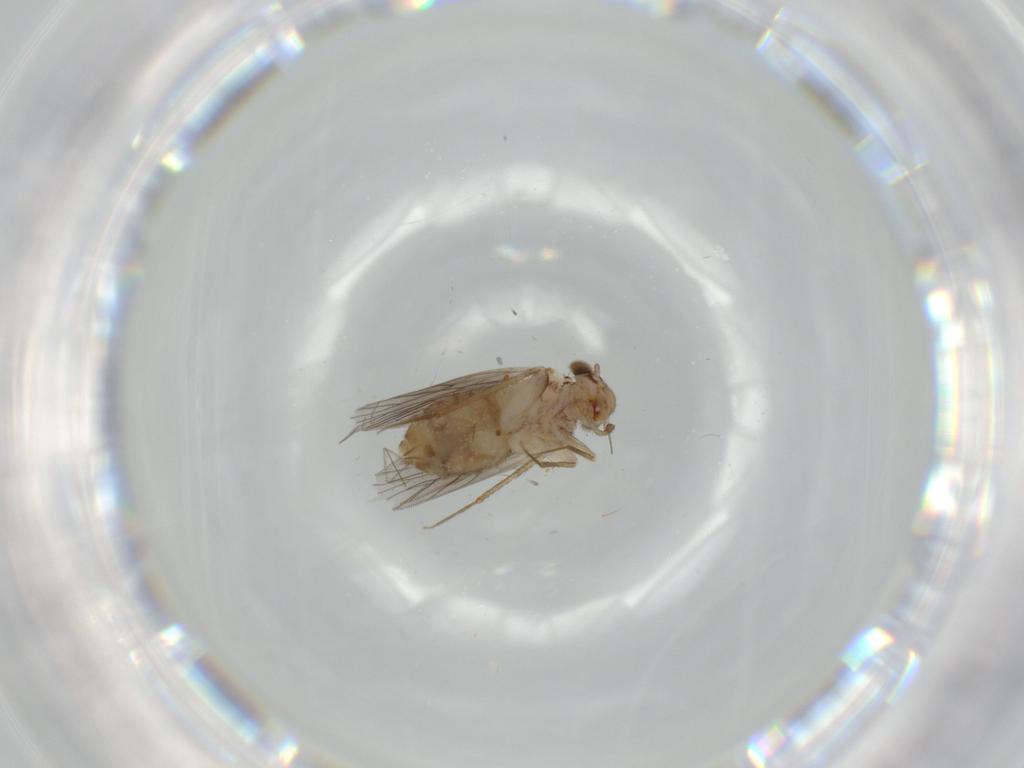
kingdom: Animalia
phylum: Arthropoda
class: Insecta
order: Psocodea
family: Lepidopsocidae
